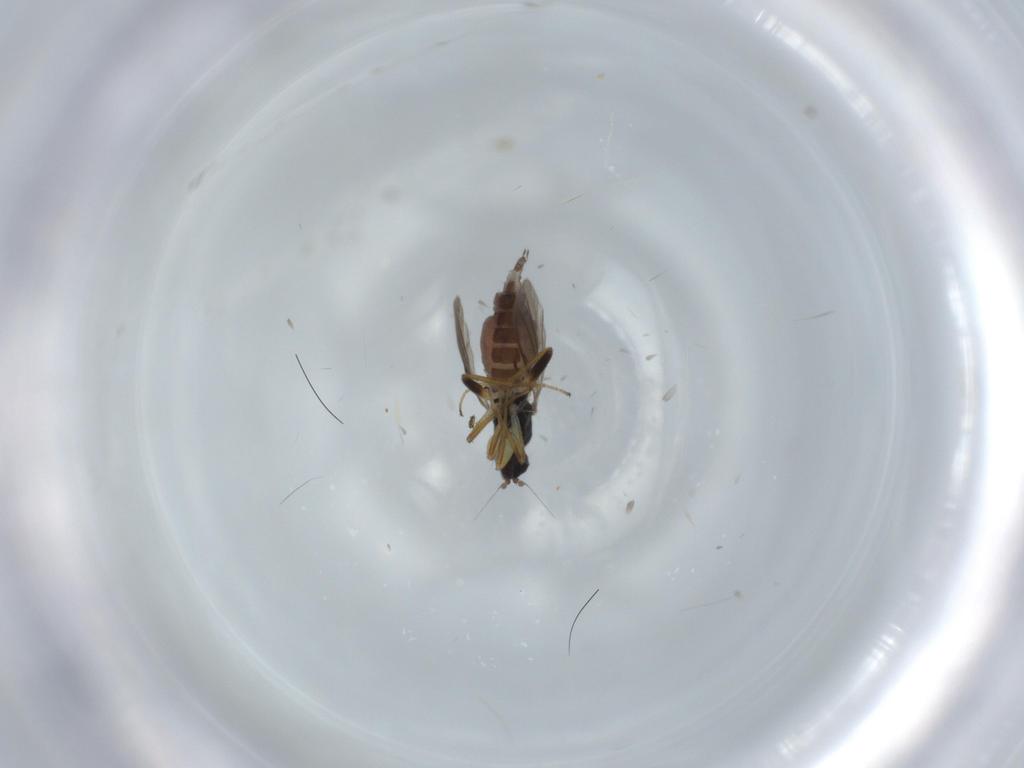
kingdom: Animalia
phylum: Arthropoda
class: Insecta
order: Diptera
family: Hybotidae
